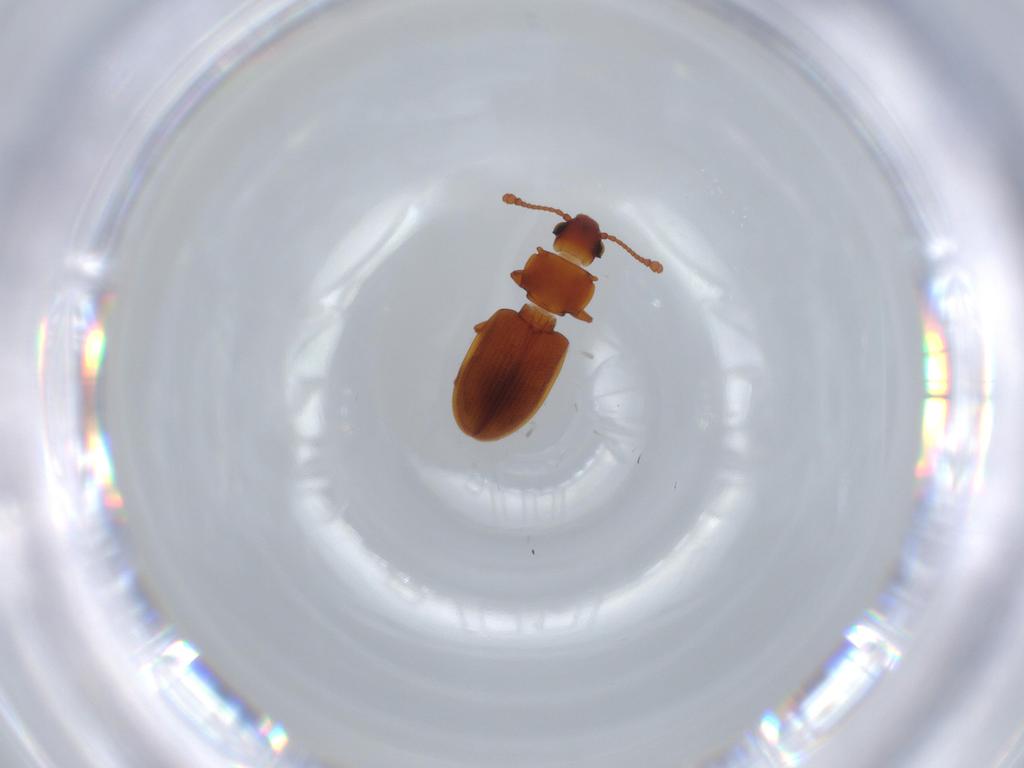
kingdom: Animalia
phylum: Arthropoda
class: Insecta
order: Coleoptera
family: Silvanidae
